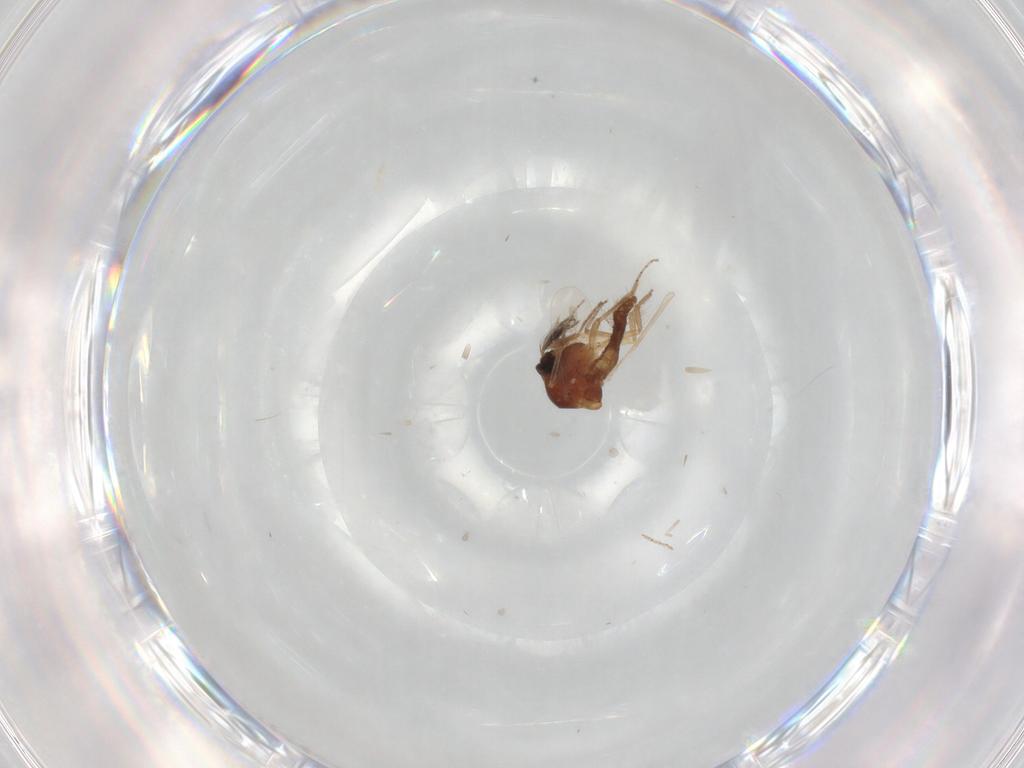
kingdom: Animalia
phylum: Arthropoda
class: Insecta
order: Diptera
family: Ceratopogonidae
